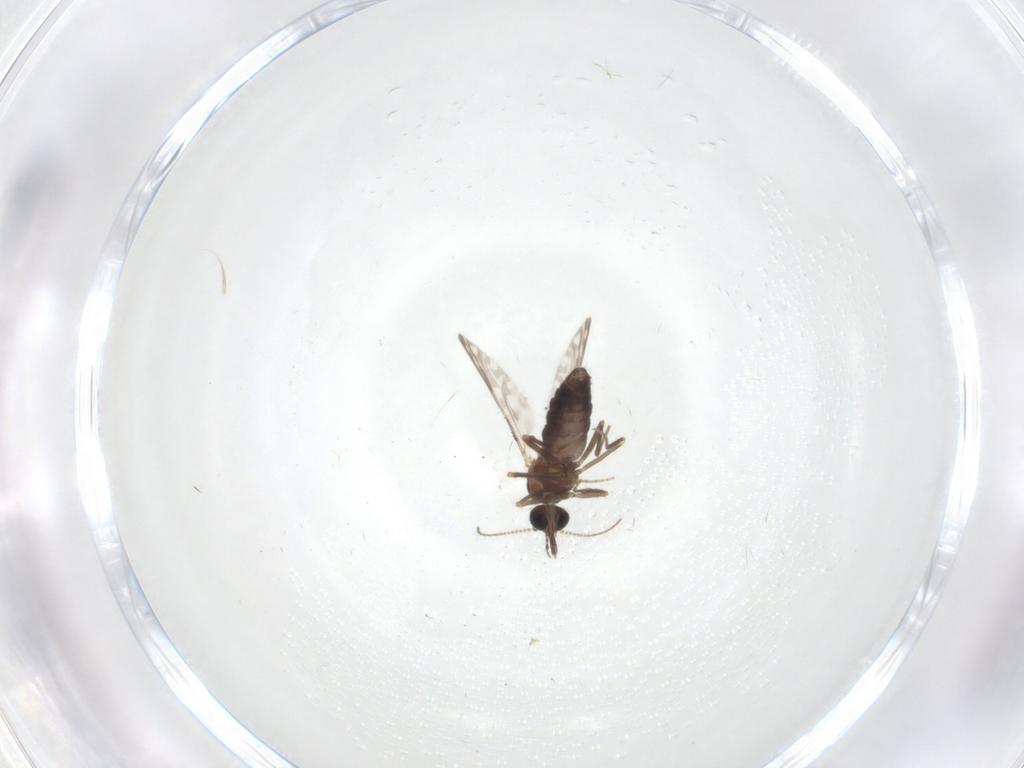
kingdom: Animalia
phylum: Arthropoda
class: Insecta
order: Diptera
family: Ceratopogonidae
